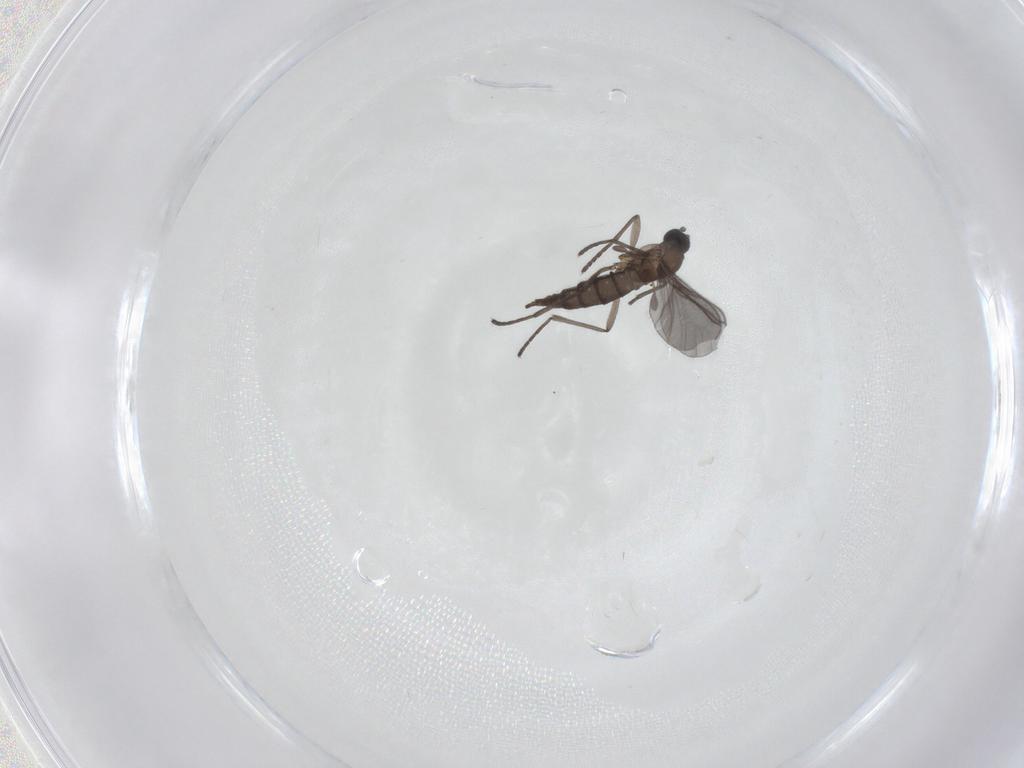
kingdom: Animalia
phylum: Arthropoda
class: Insecta
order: Diptera
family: Sciaridae
